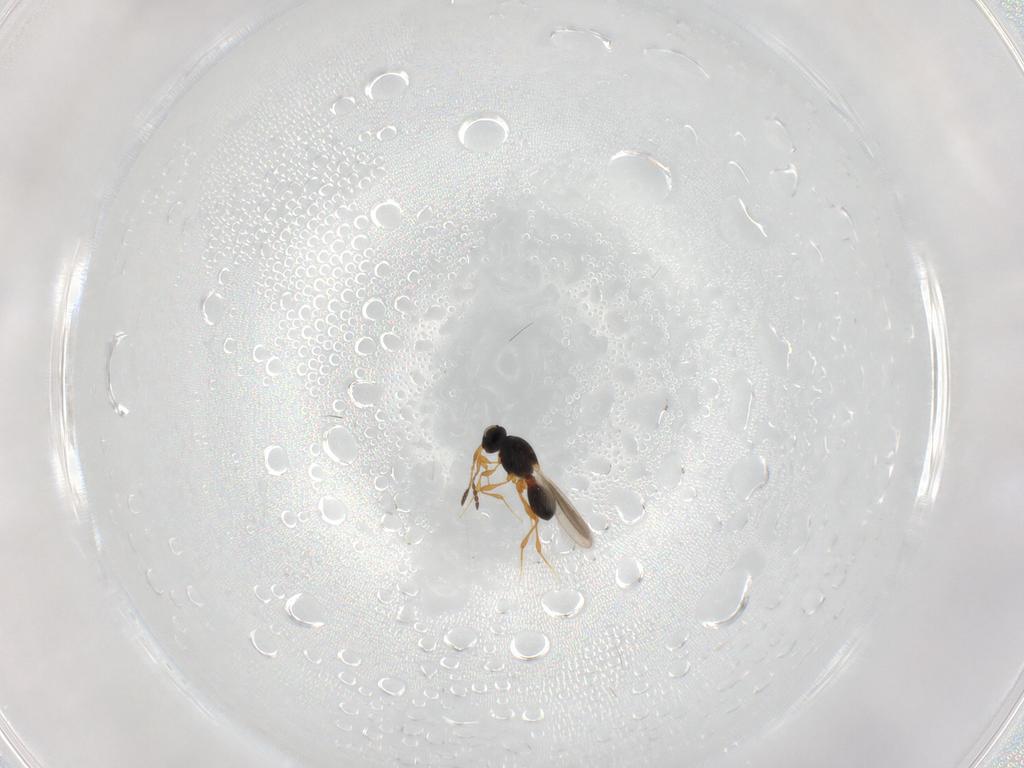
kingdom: Animalia
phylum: Arthropoda
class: Insecta
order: Hymenoptera
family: Platygastridae
